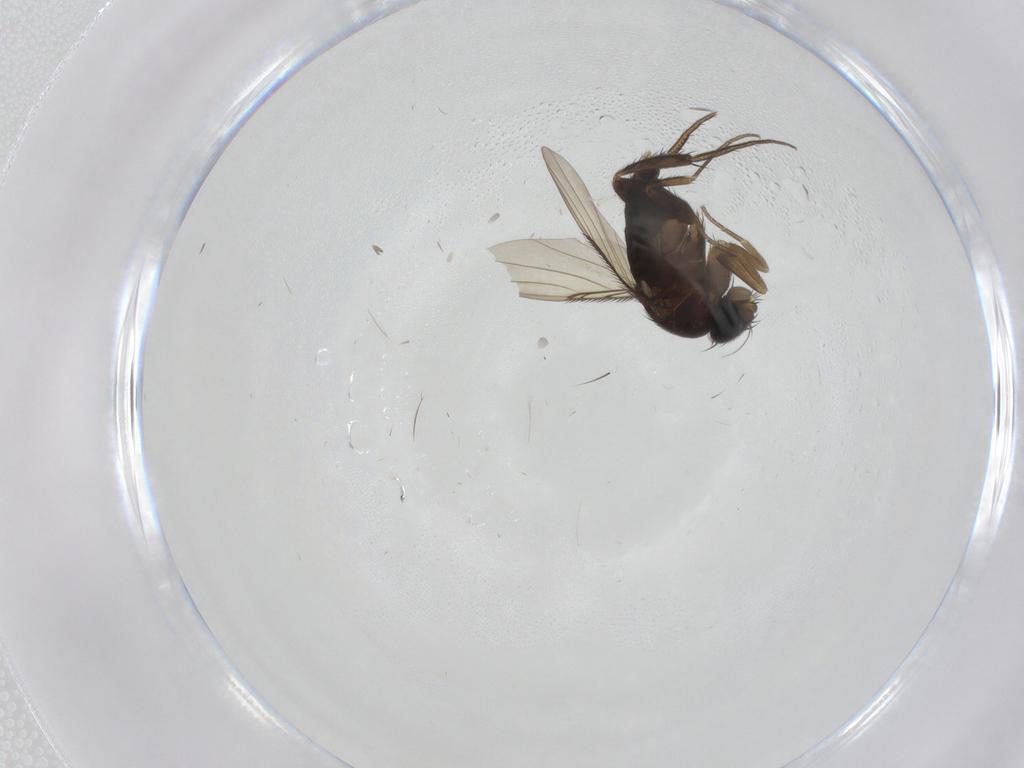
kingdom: Animalia
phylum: Arthropoda
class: Insecta
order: Diptera
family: Phoridae
